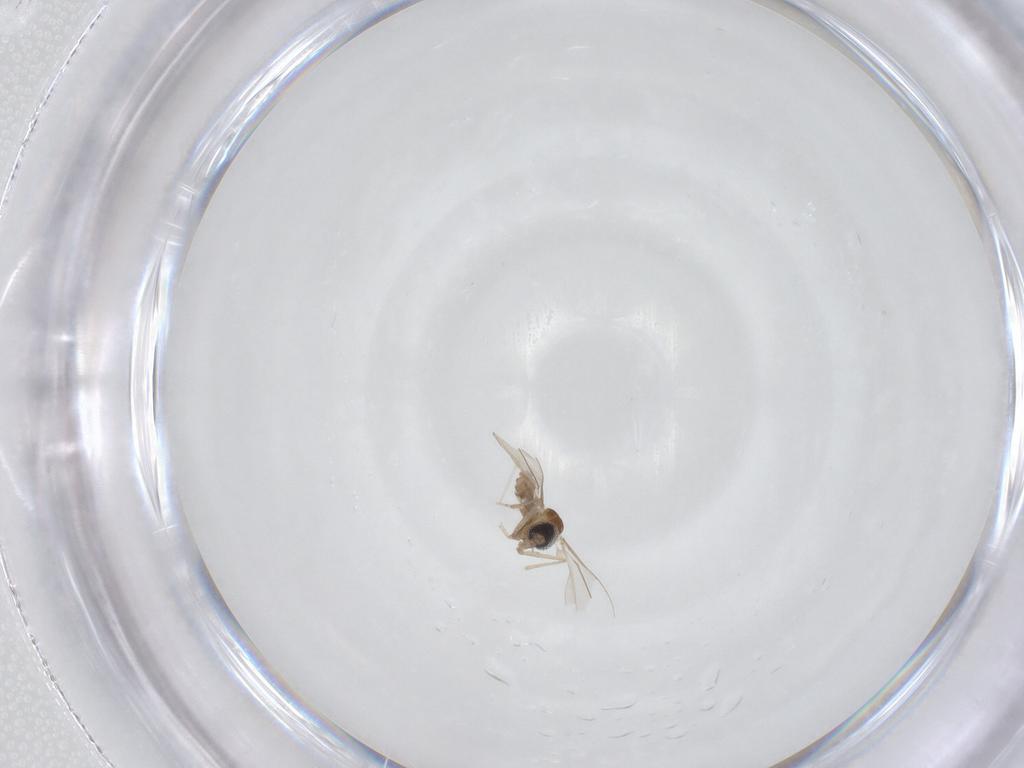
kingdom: Animalia
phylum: Arthropoda
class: Insecta
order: Diptera
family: Cecidomyiidae
